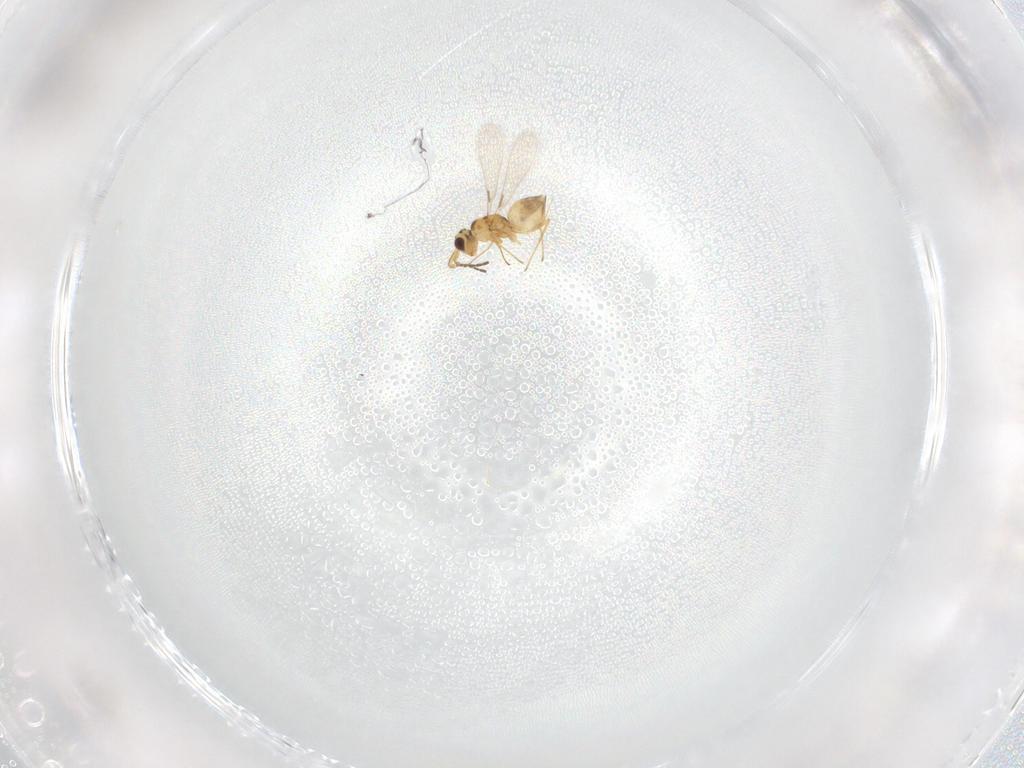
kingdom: Animalia
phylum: Arthropoda
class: Insecta
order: Hymenoptera
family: Mymaridae
